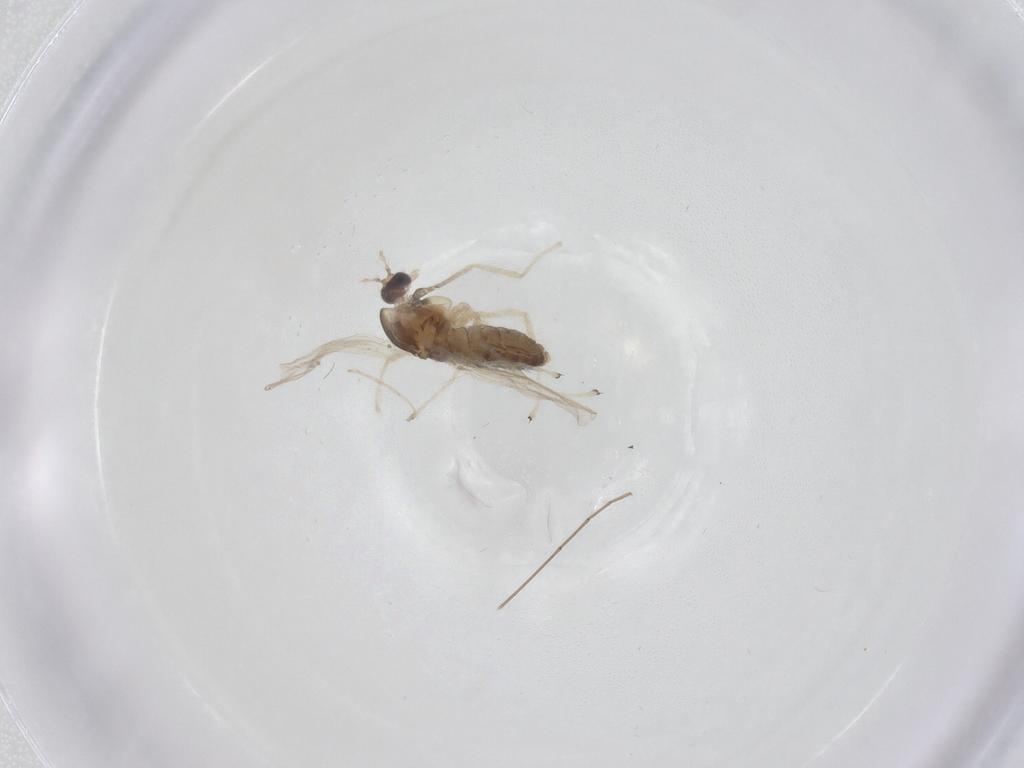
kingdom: Animalia
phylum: Arthropoda
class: Insecta
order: Diptera
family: Chironomidae
